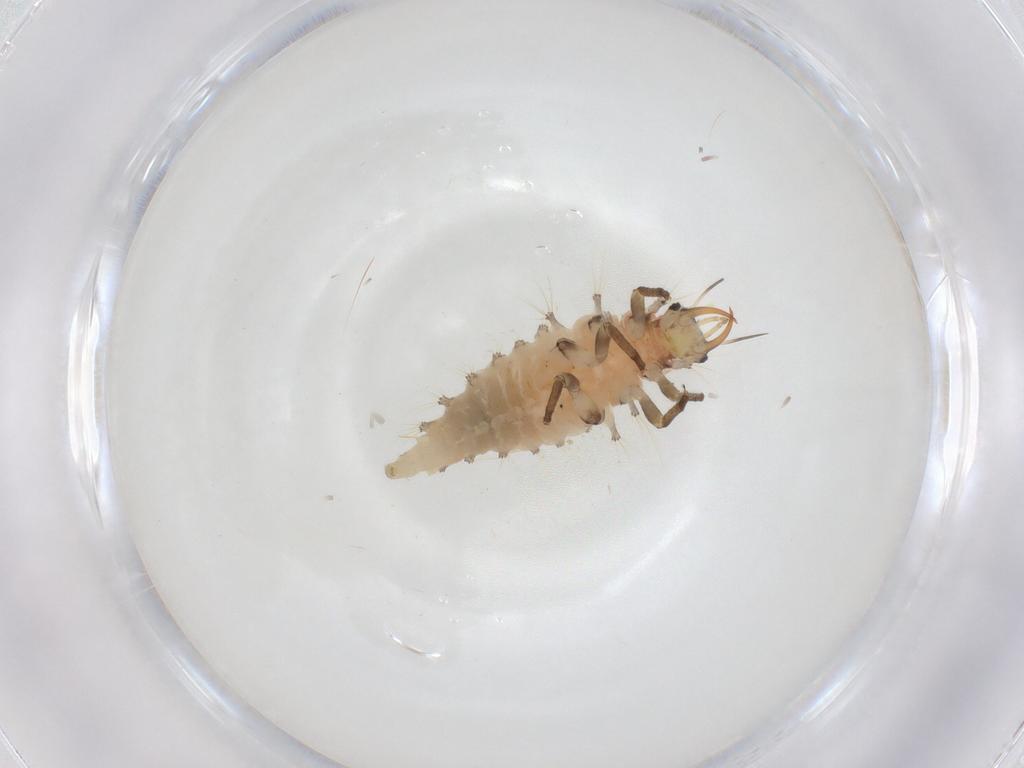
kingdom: Animalia
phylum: Arthropoda
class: Insecta
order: Neuroptera
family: Chrysopidae
